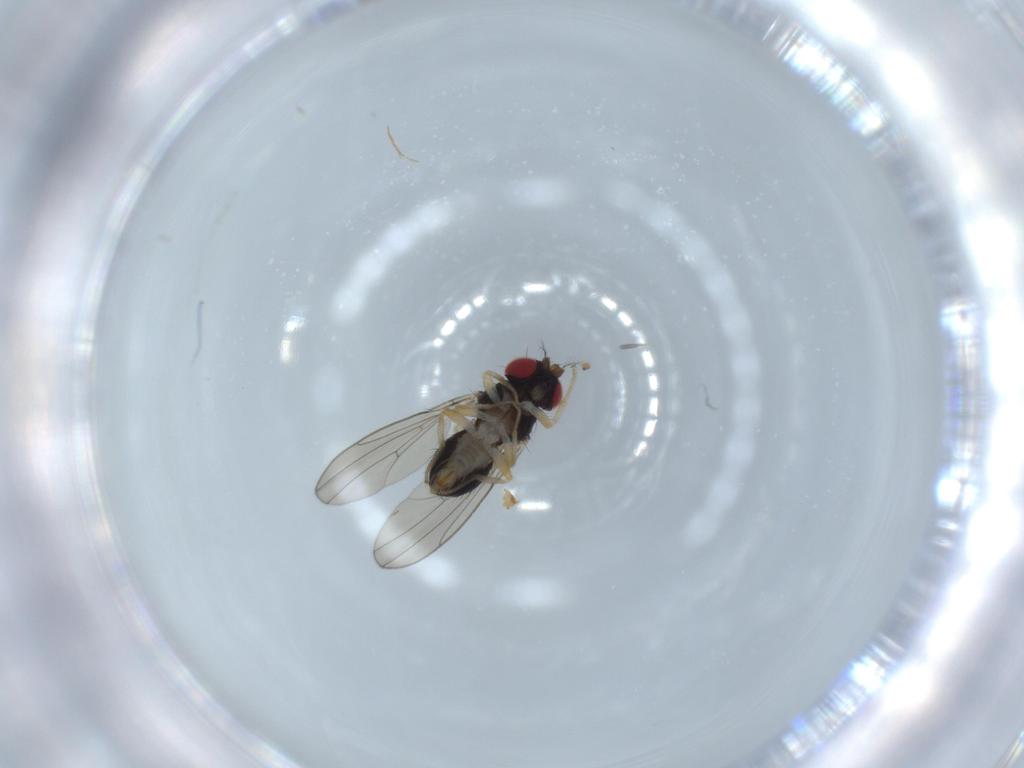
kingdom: Animalia
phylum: Arthropoda
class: Insecta
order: Diptera
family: Drosophilidae
